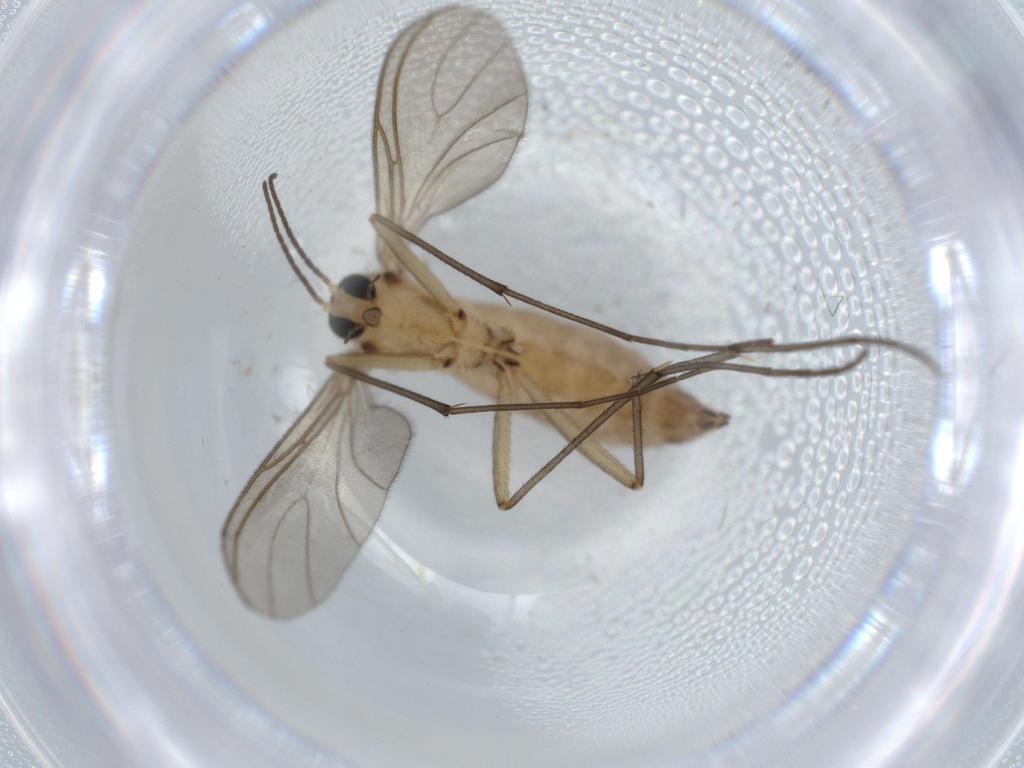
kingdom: Animalia
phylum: Arthropoda
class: Insecta
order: Diptera
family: Sciaridae
